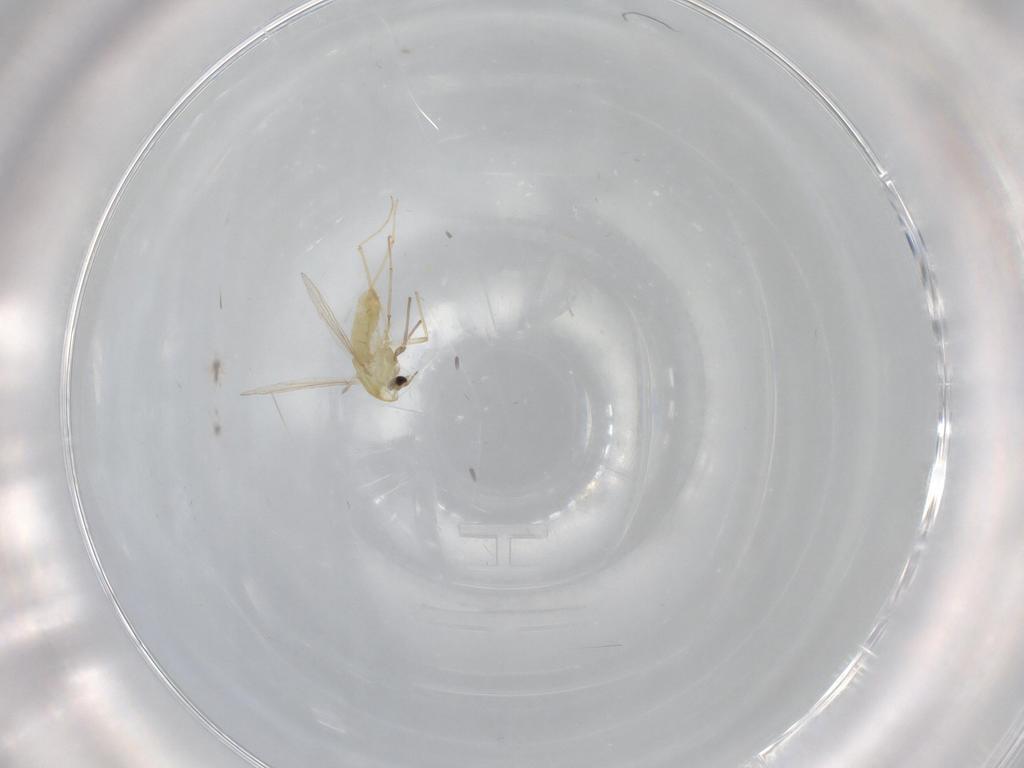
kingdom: Animalia
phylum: Arthropoda
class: Insecta
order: Diptera
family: Chironomidae
